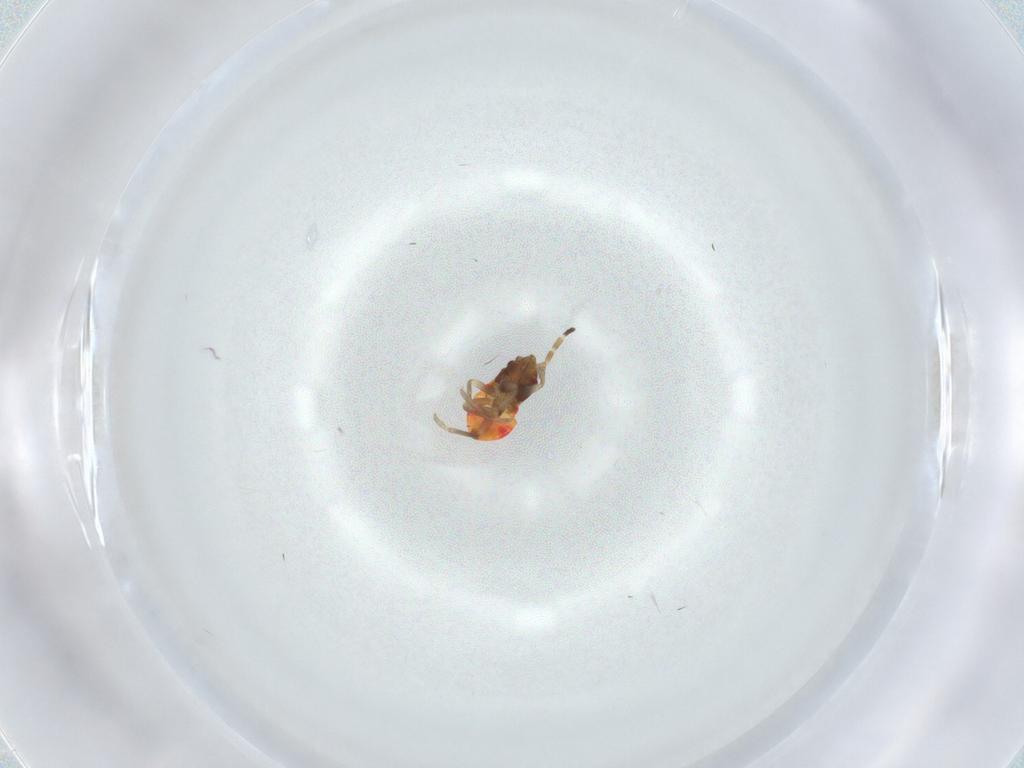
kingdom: Animalia
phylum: Arthropoda
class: Insecta
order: Hemiptera
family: Rhyparochromidae
